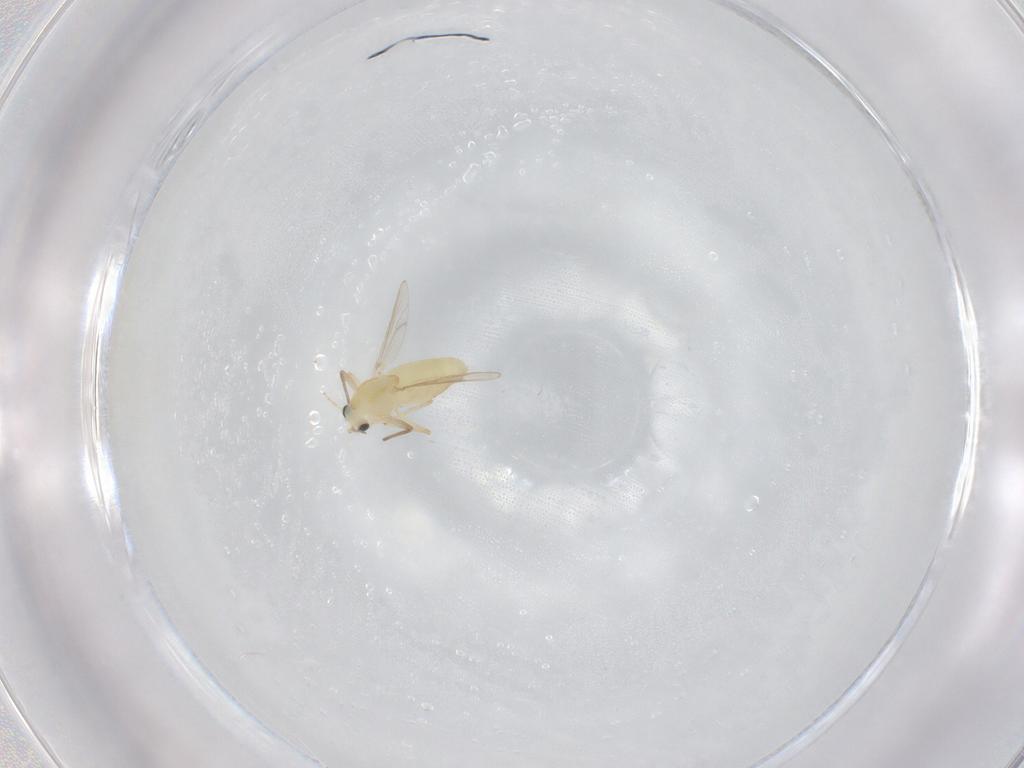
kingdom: Animalia
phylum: Arthropoda
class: Insecta
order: Diptera
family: Chironomidae
